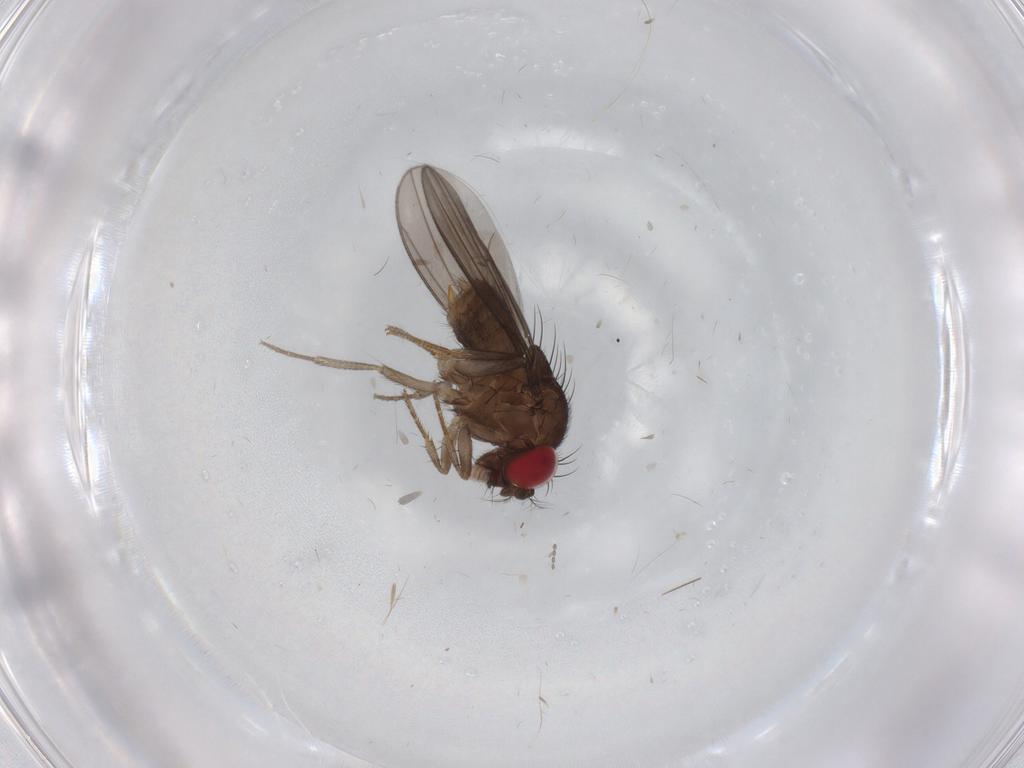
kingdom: Animalia
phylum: Arthropoda
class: Insecta
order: Diptera
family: Drosophilidae
